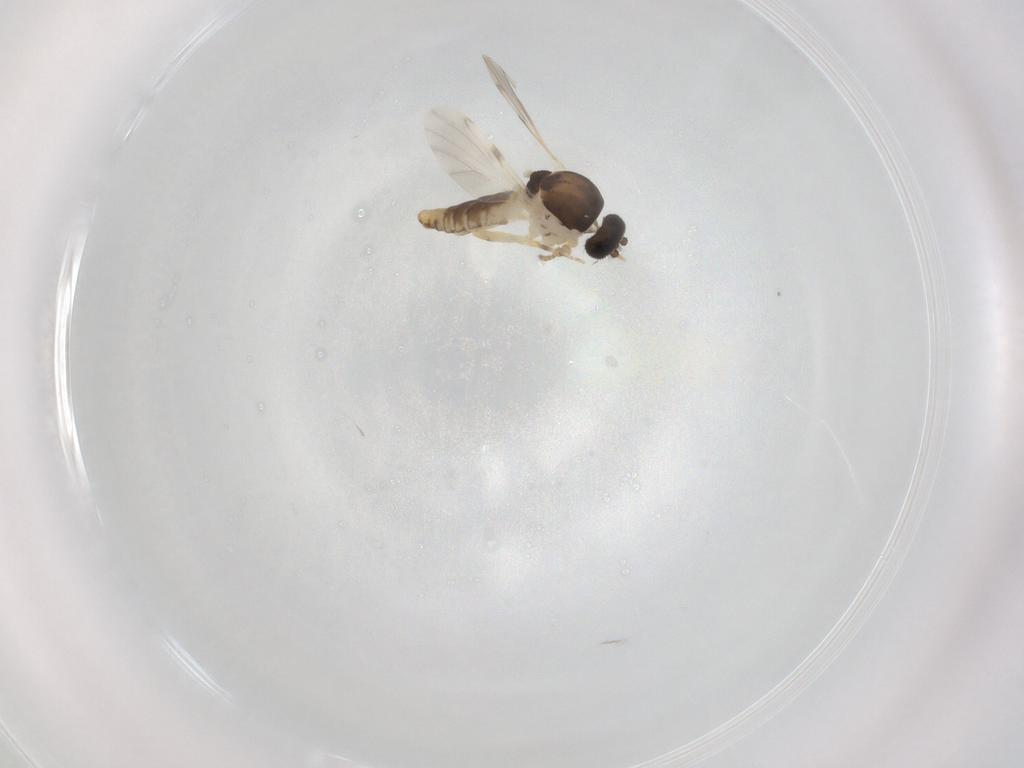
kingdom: Animalia
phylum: Arthropoda
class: Insecta
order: Diptera
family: Ceratopogonidae
